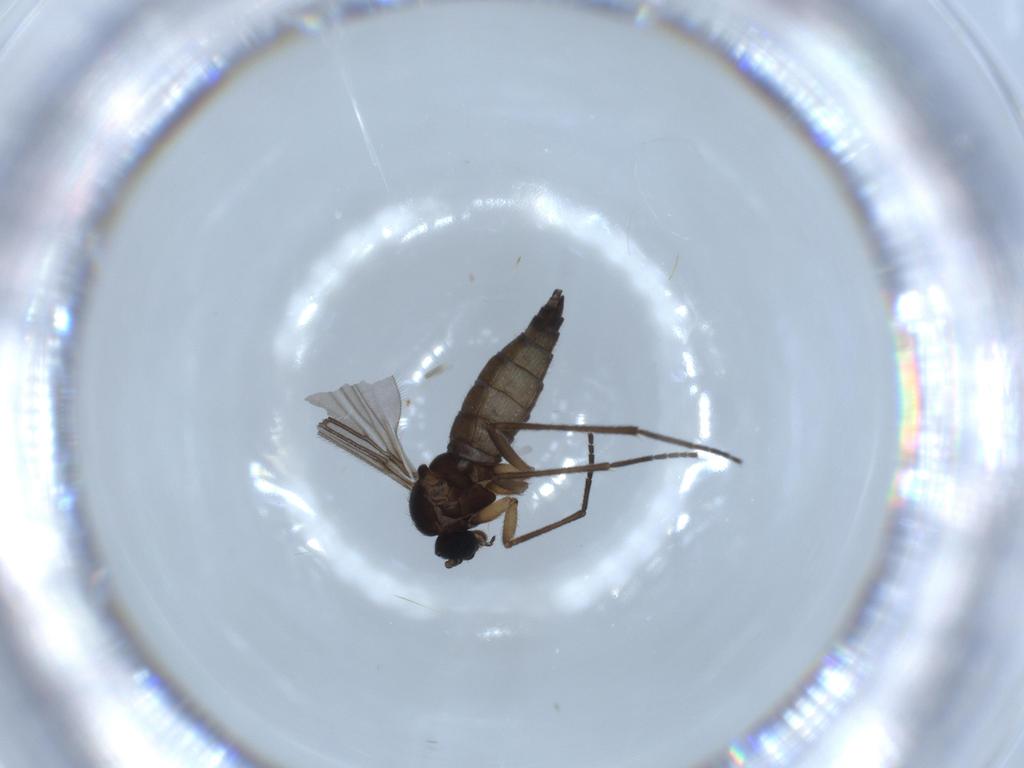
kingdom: Animalia
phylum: Arthropoda
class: Insecta
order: Diptera
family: Sciaridae
